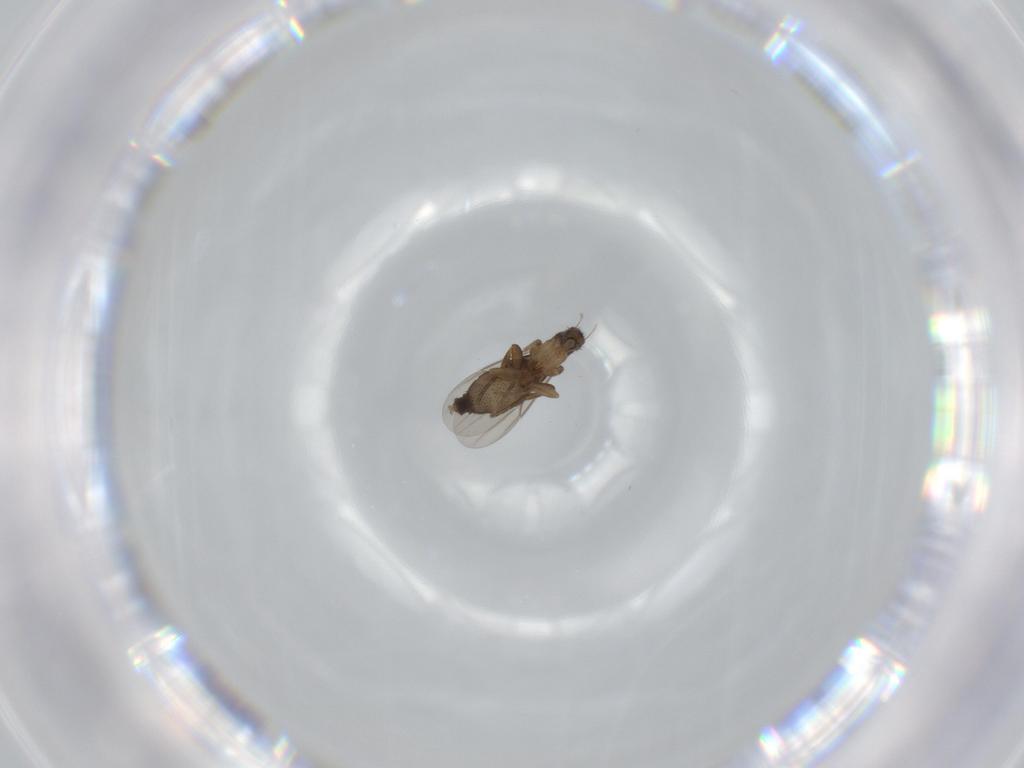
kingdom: Animalia
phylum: Arthropoda
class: Insecta
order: Diptera
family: Phoridae
